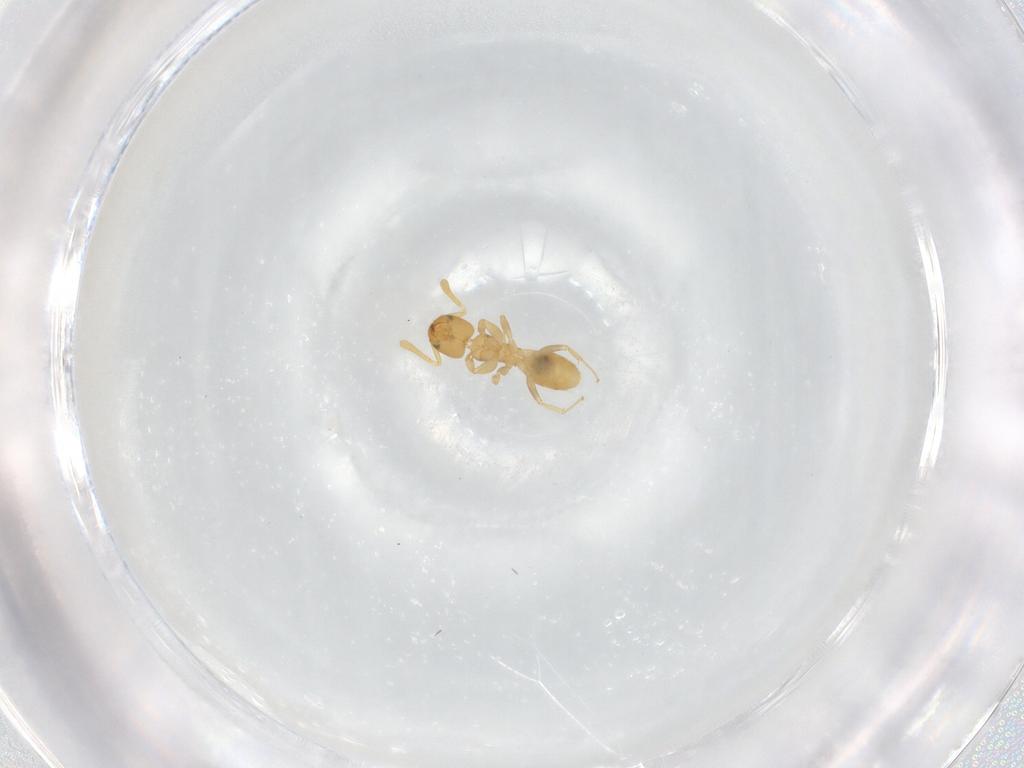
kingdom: Animalia
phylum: Arthropoda
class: Insecta
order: Hymenoptera
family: Formicidae
